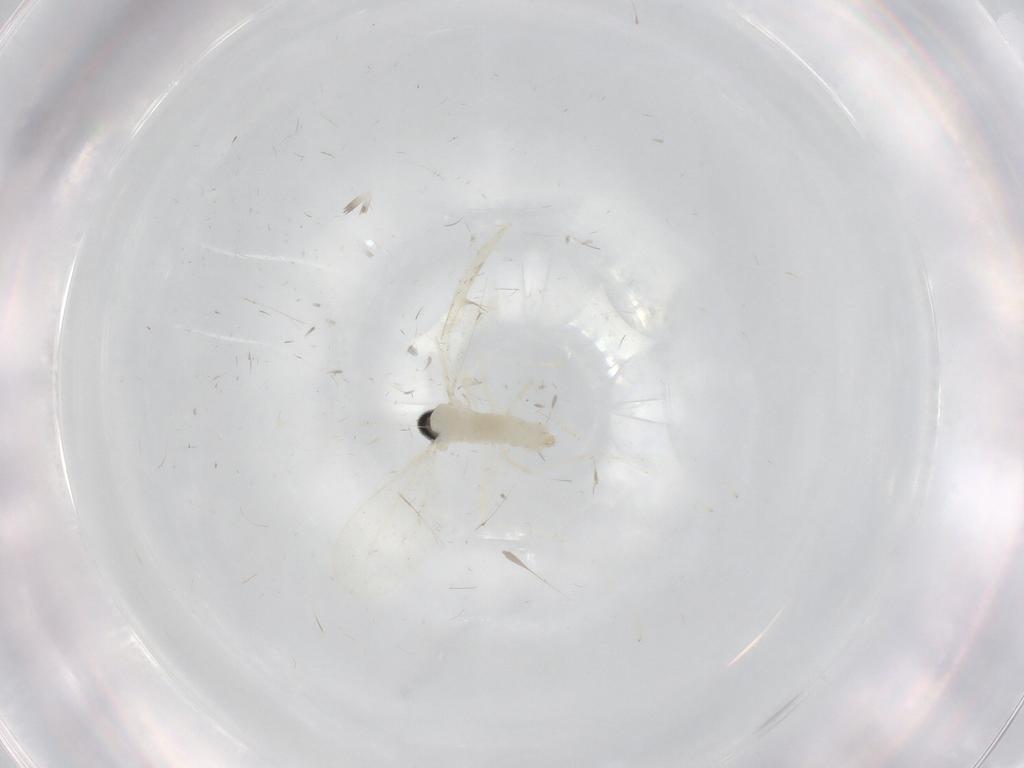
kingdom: Animalia
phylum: Arthropoda
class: Insecta
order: Diptera
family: Cecidomyiidae
